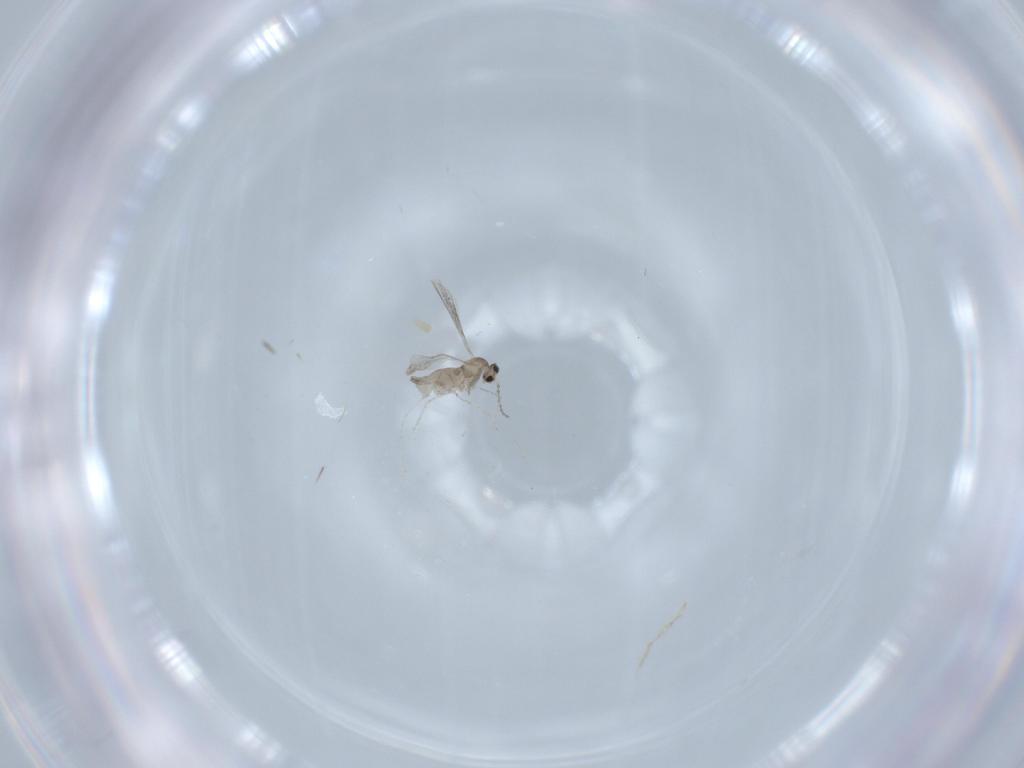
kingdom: Animalia
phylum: Arthropoda
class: Insecta
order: Diptera
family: Cecidomyiidae
